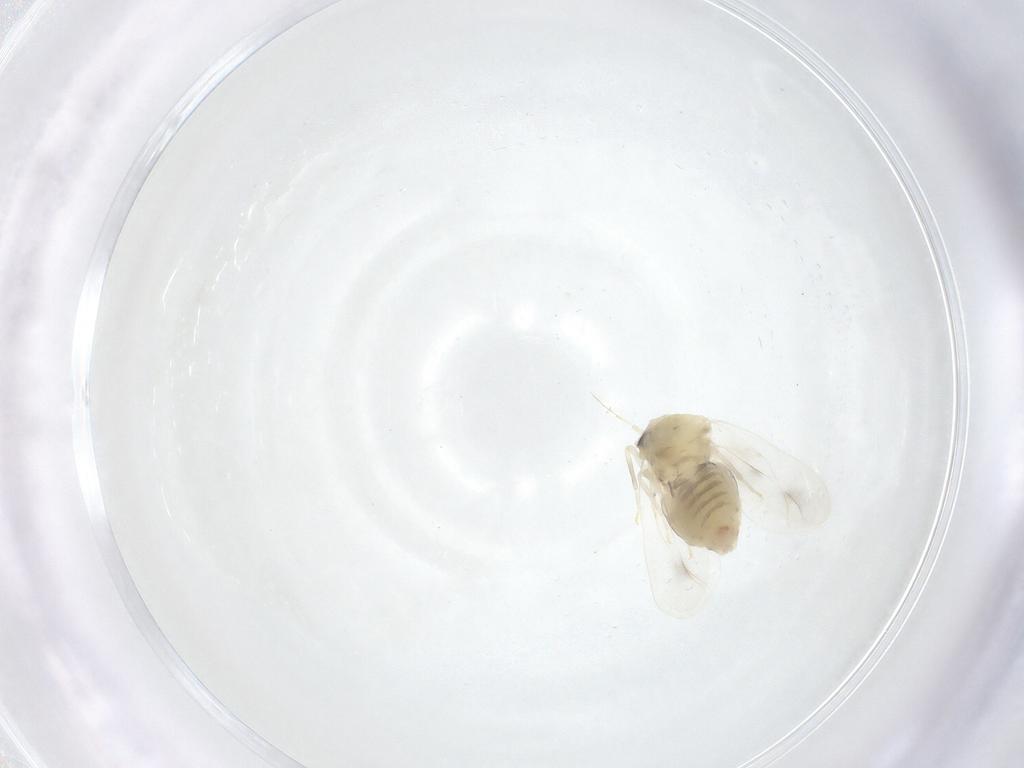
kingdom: Animalia
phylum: Arthropoda
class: Insecta
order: Hemiptera
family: Aleyrodidae
